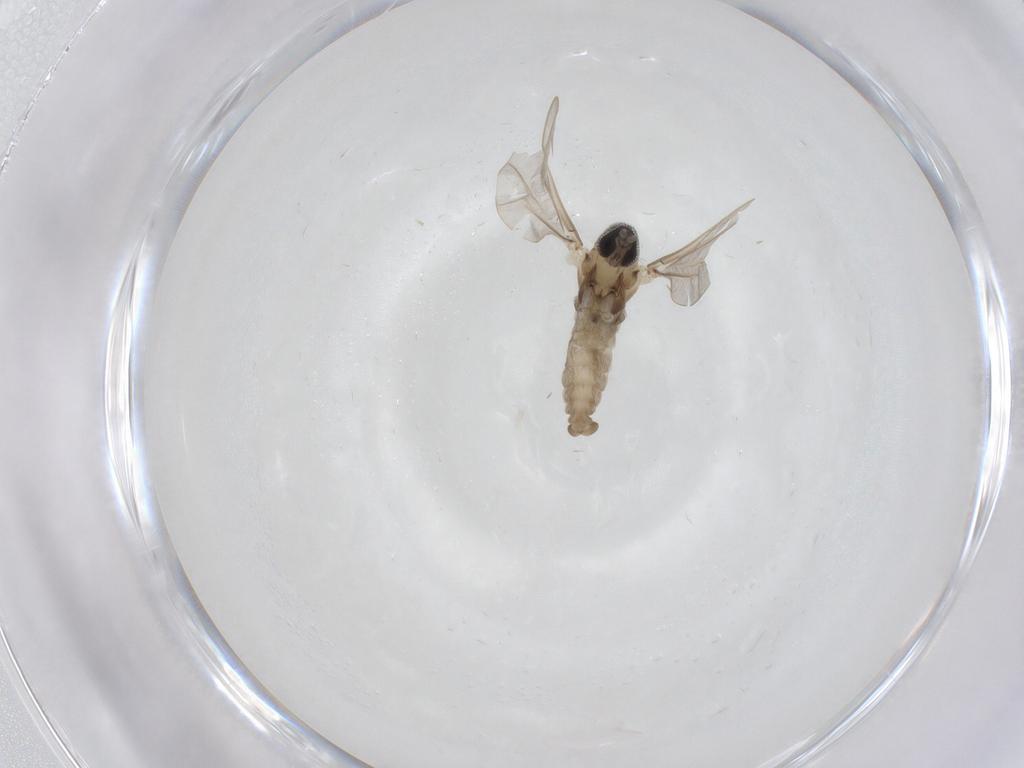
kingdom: Animalia
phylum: Arthropoda
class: Insecta
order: Diptera
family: Cecidomyiidae
